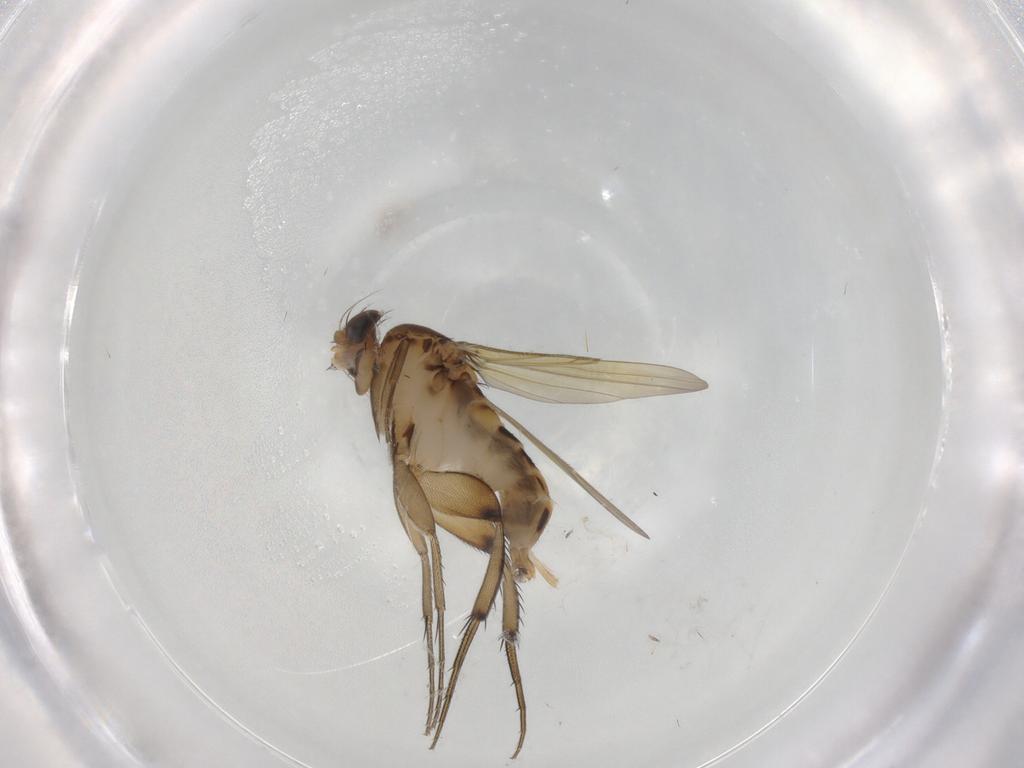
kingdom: Animalia
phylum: Arthropoda
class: Insecta
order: Diptera
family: Phoridae
